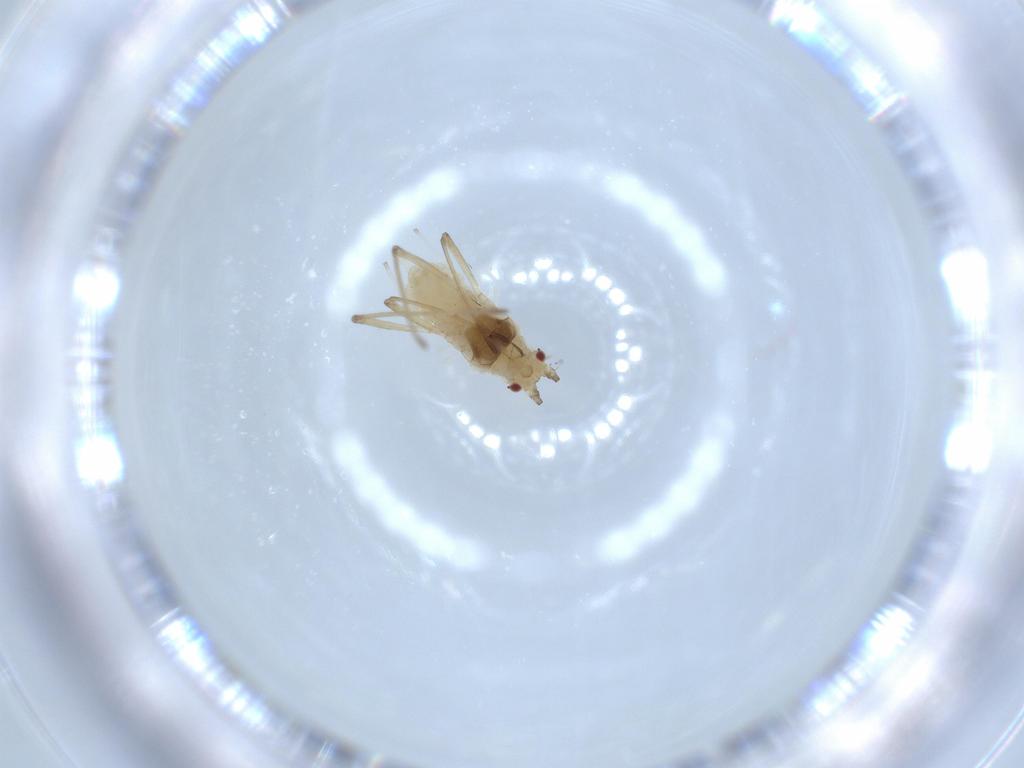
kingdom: Animalia
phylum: Arthropoda
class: Insecta
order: Hemiptera
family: Aphididae
